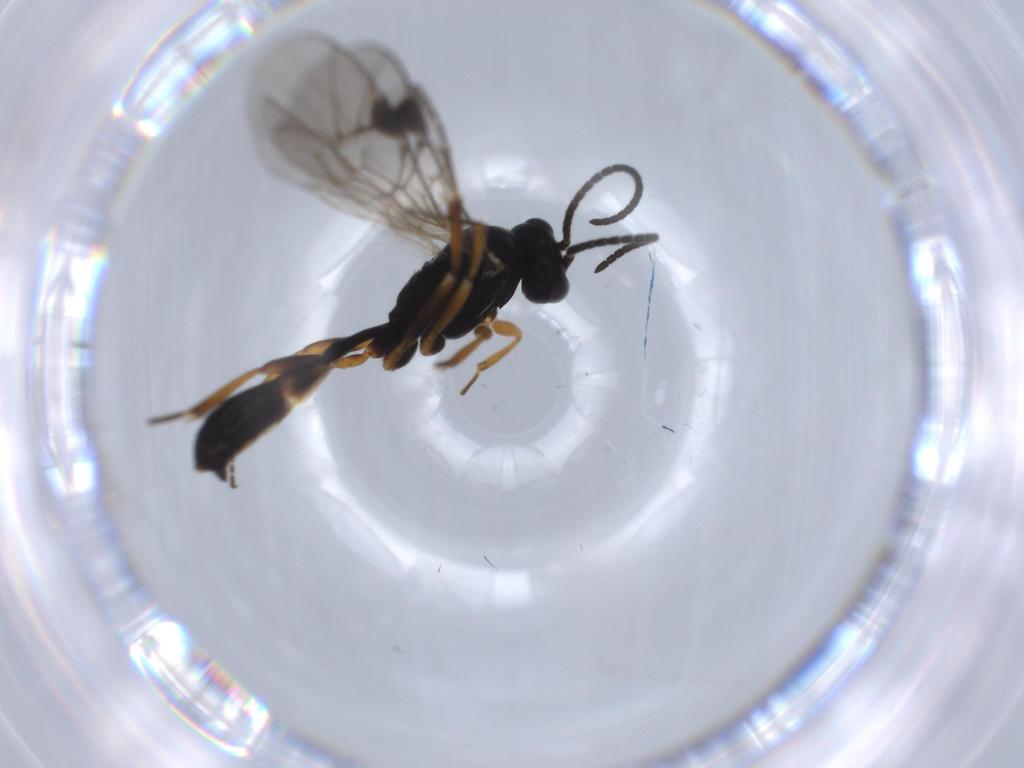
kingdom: Animalia
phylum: Arthropoda
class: Insecta
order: Hymenoptera
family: Ichneumonidae
